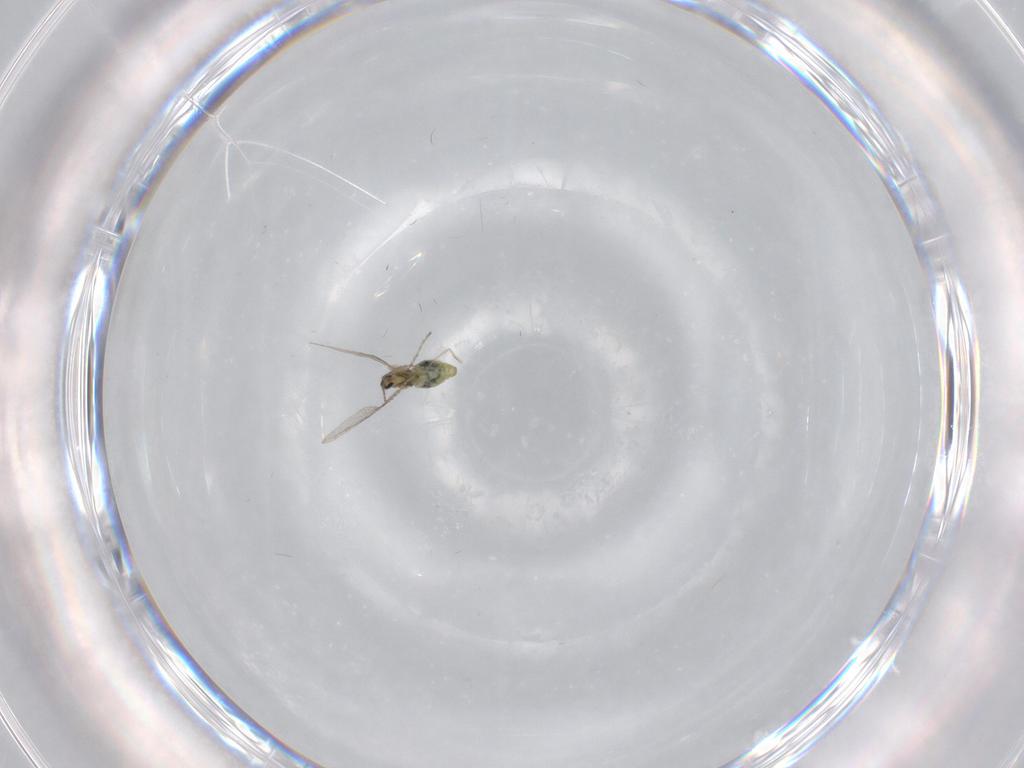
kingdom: Animalia
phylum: Arthropoda
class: Insecta
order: Diptera
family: Cecidomyiidae
